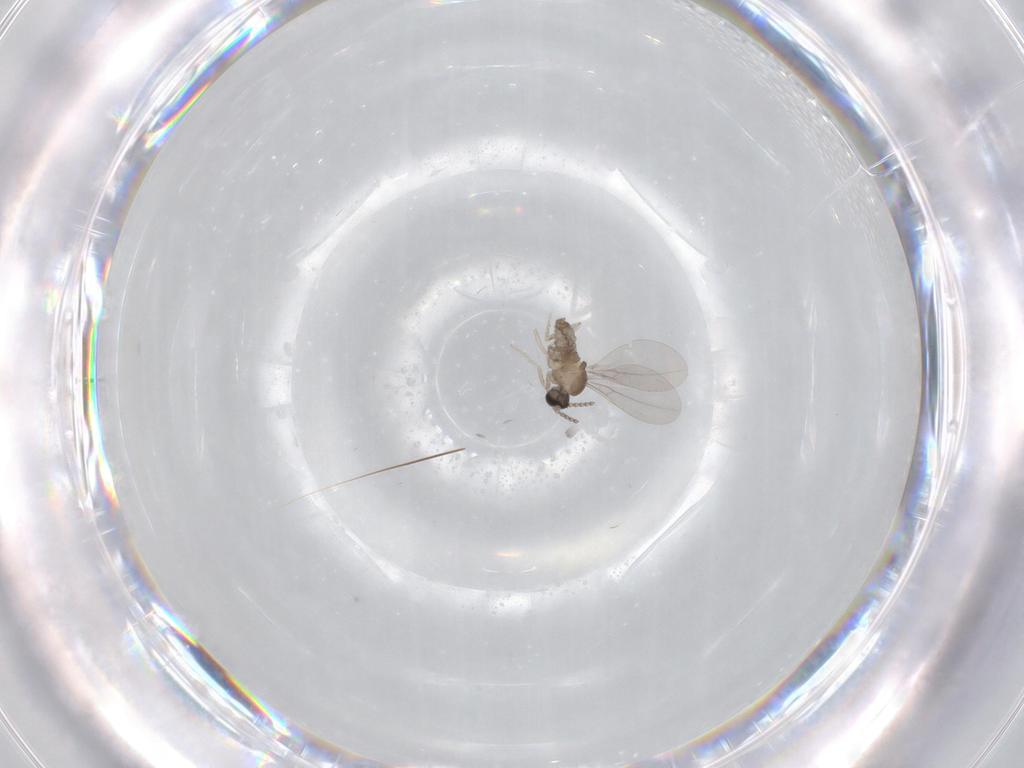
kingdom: Animalia
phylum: Arthropoda
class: Insecta
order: Diptera
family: Cecidomyiidae
